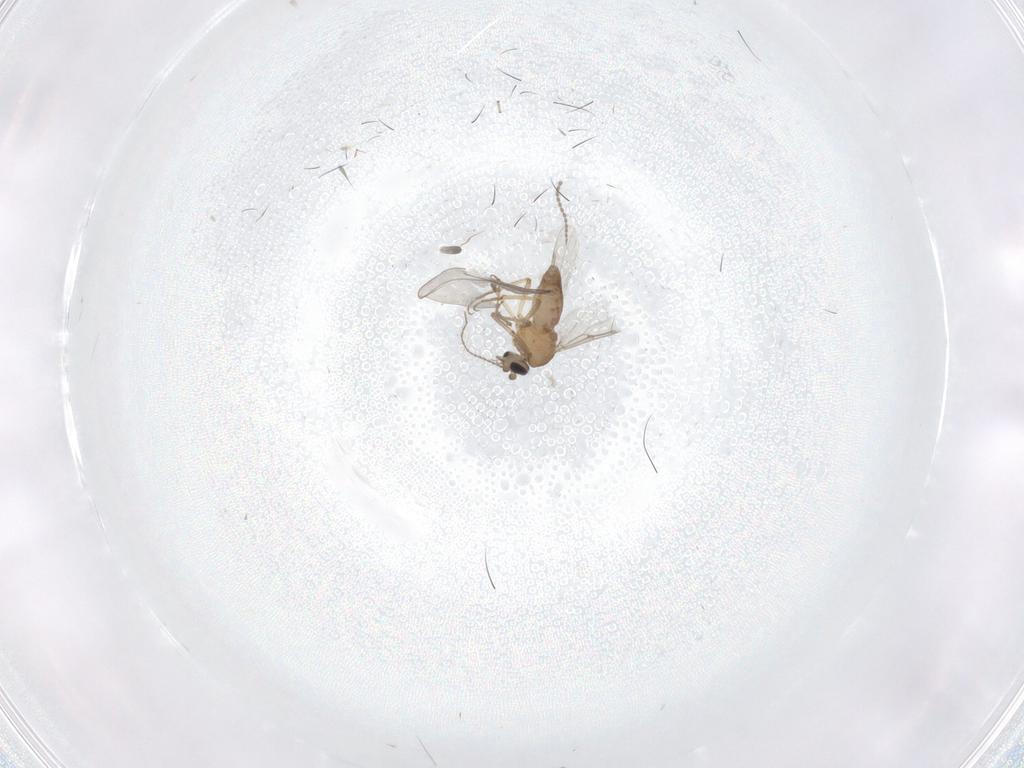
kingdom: Animalia
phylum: Arthropoda
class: Insecta
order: Diptera
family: Cecidomyiidae
